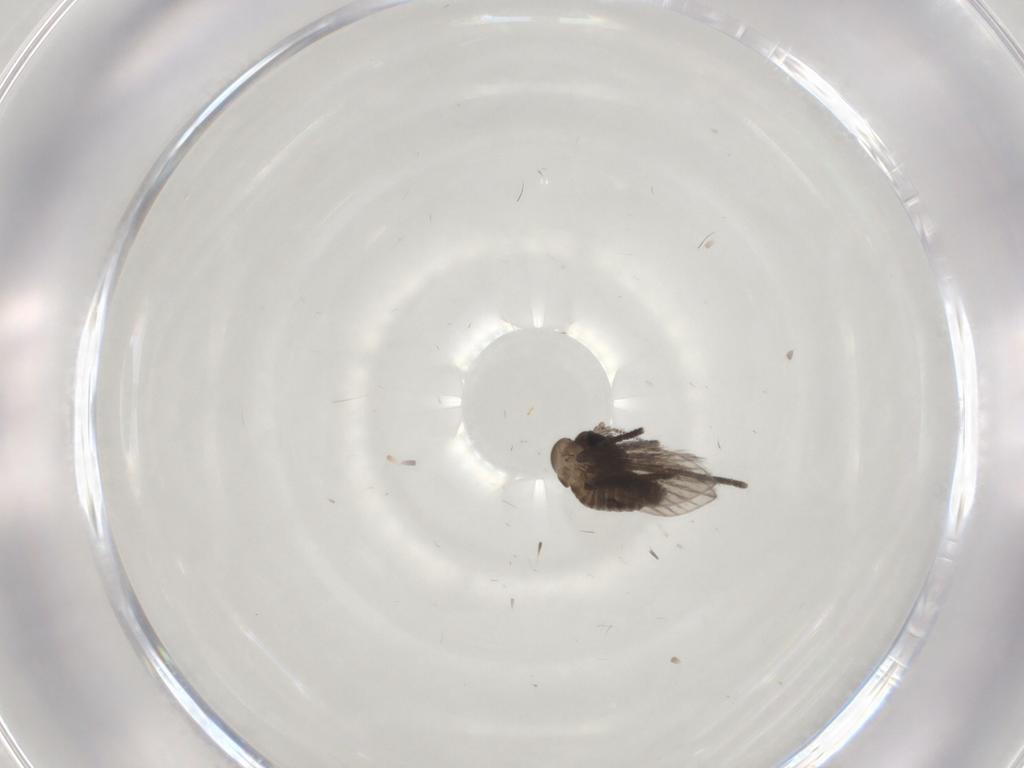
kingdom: Animalia
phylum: Arthropoda
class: Insecta
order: Diptera
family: Psychodidae
